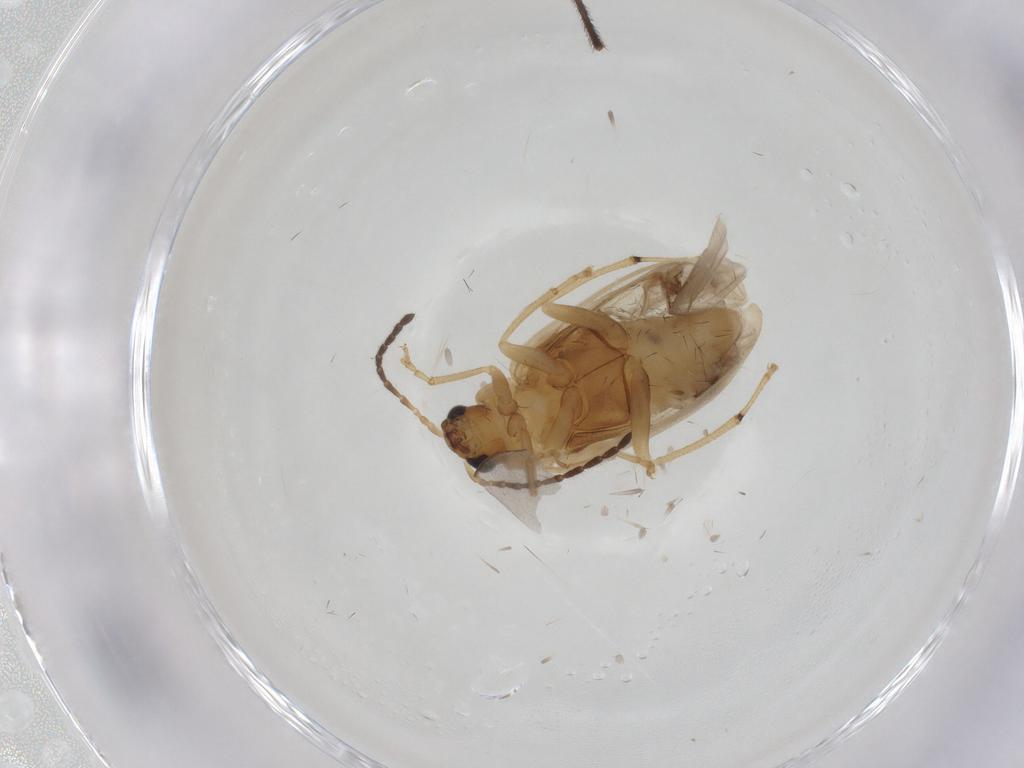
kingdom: Animalia
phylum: Arthropoda
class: Insecta
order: Coleoptera
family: Chrysomelidae
